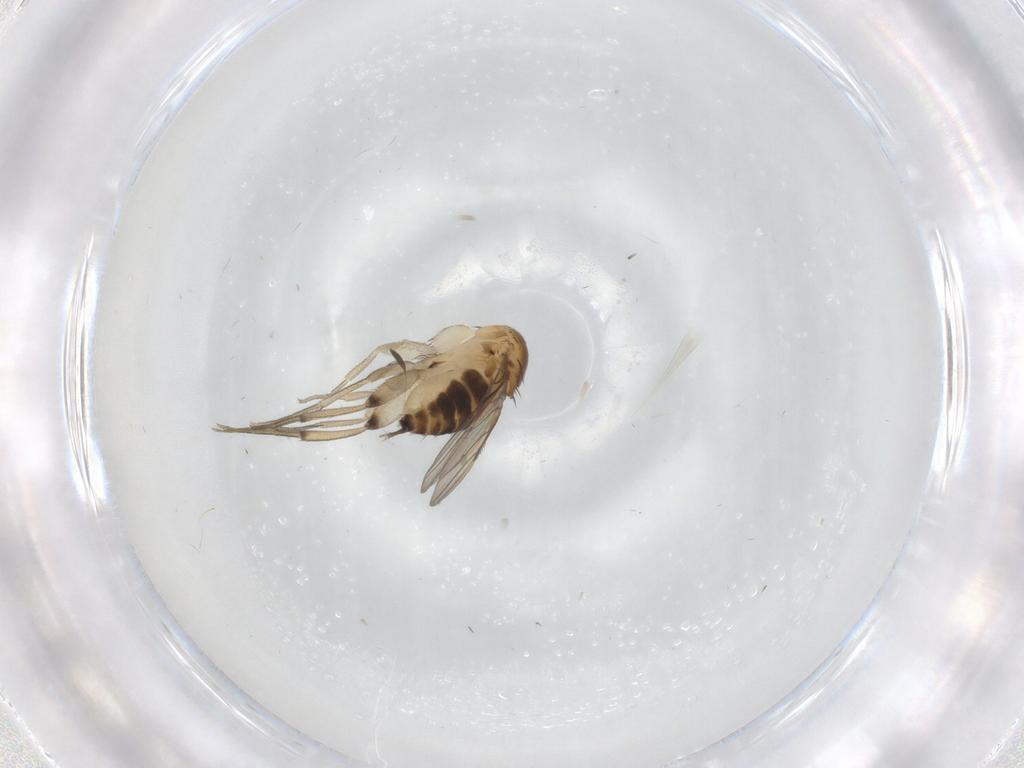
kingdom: Animalia
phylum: Arthropoda
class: Insecta
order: Diptera
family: Cecidomyiidae
